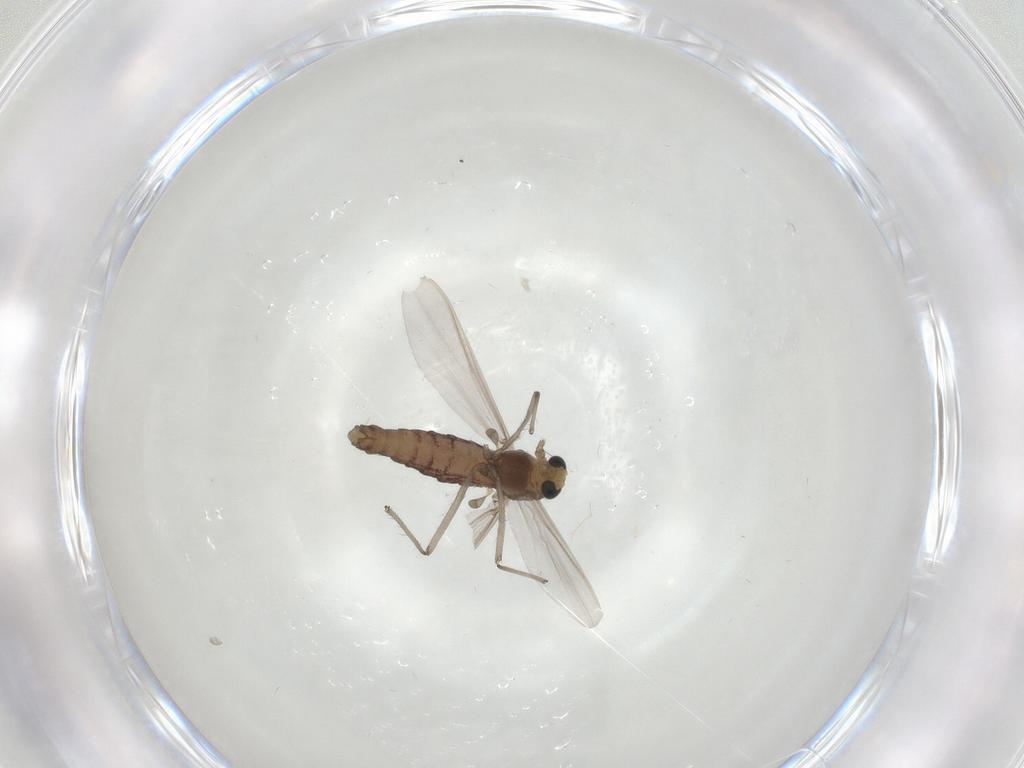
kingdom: Animalia
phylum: Arthropoda
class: Insecta
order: Diptera
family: Chironomidae
